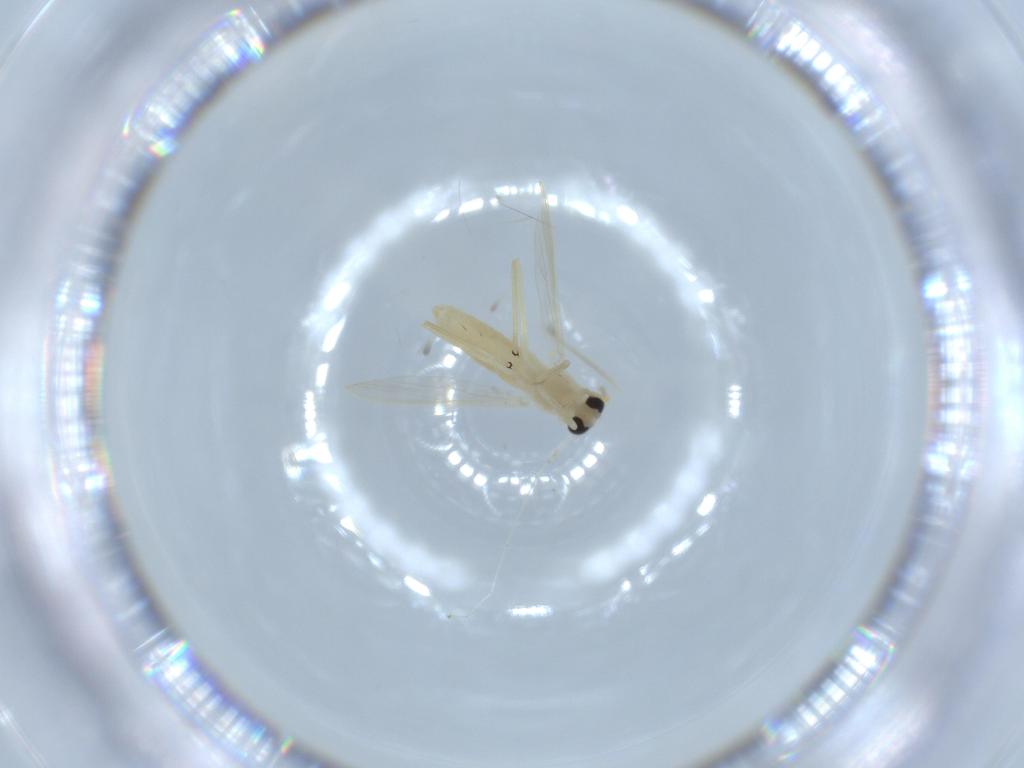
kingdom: Animalia
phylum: Arthropoda
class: Insecta
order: Diptera
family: Chironomidae
